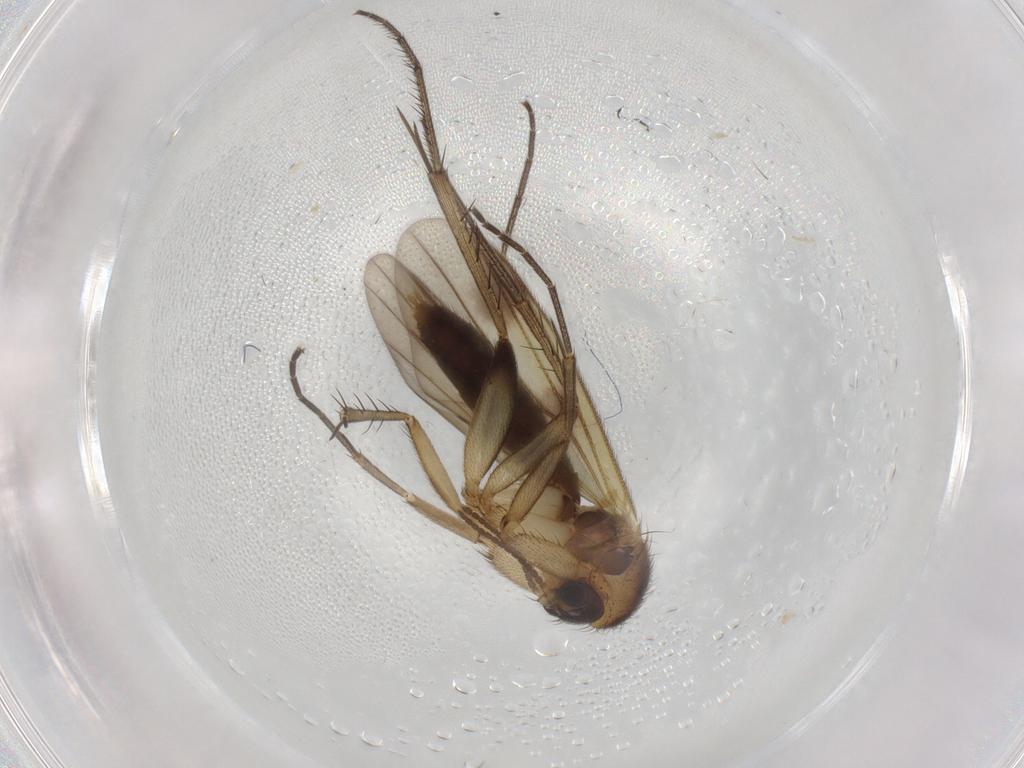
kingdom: Animalia
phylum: Arthropoda
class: Insecta
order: Diptera
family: Mycetophilidae
